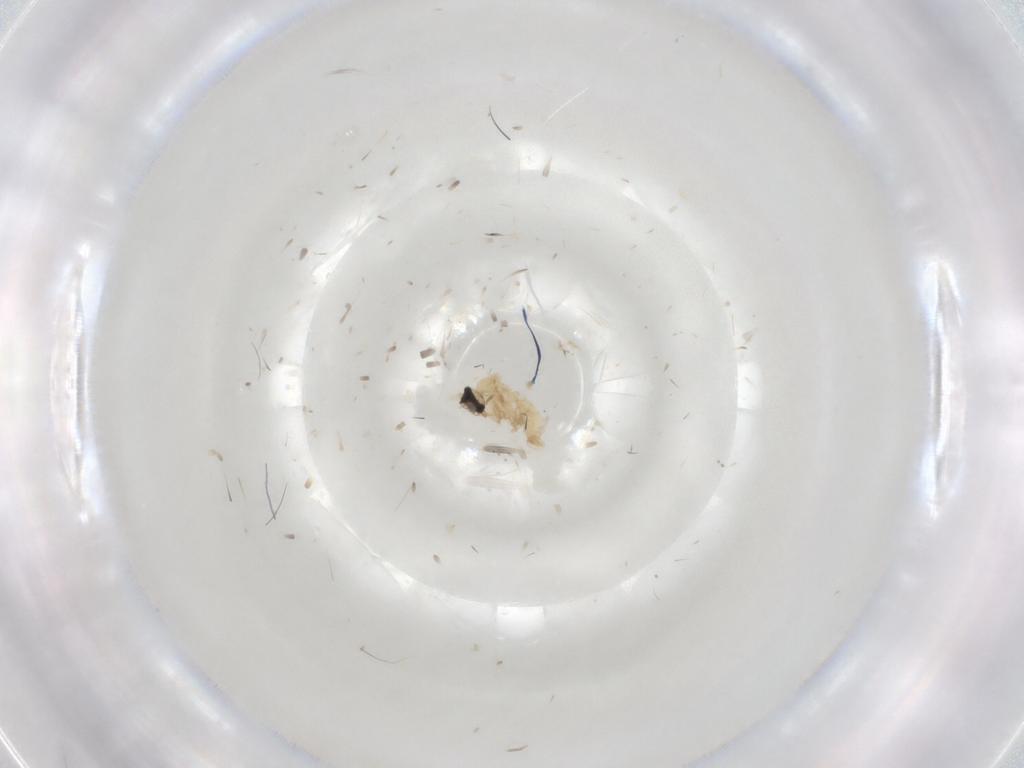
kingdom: Animalia
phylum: Arthropoda
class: Insecta
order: Diptera
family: Cecidomyiidae
